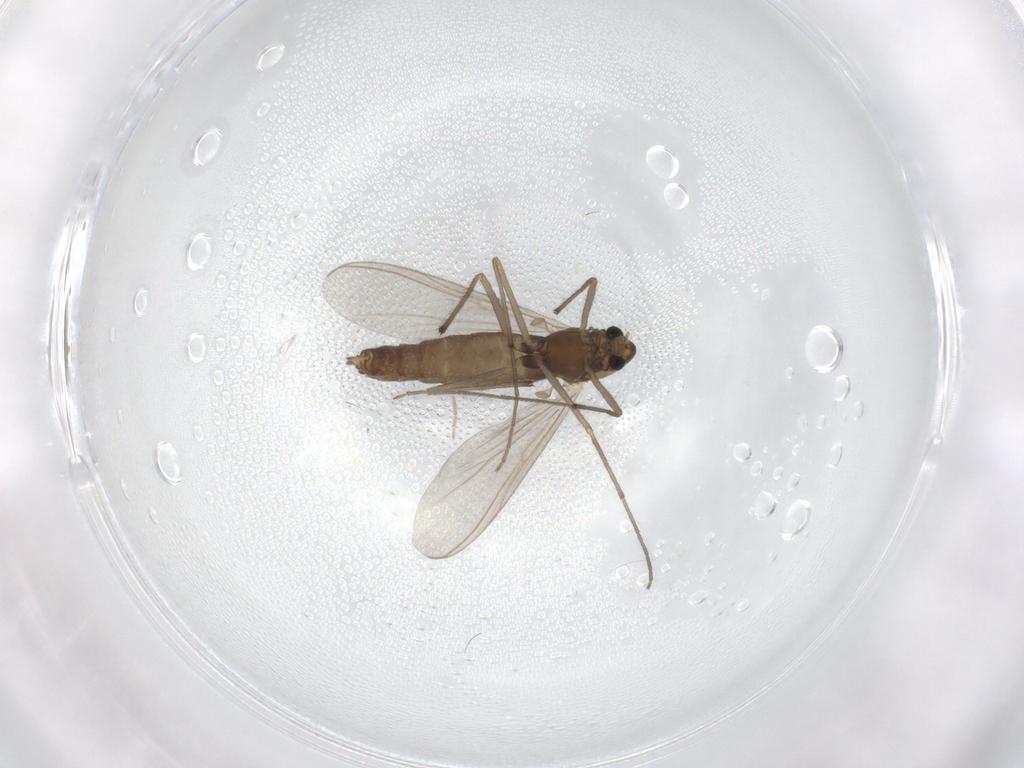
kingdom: Animalia
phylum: Arthropoda
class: Insecta
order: Diptera
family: Chironomidae
